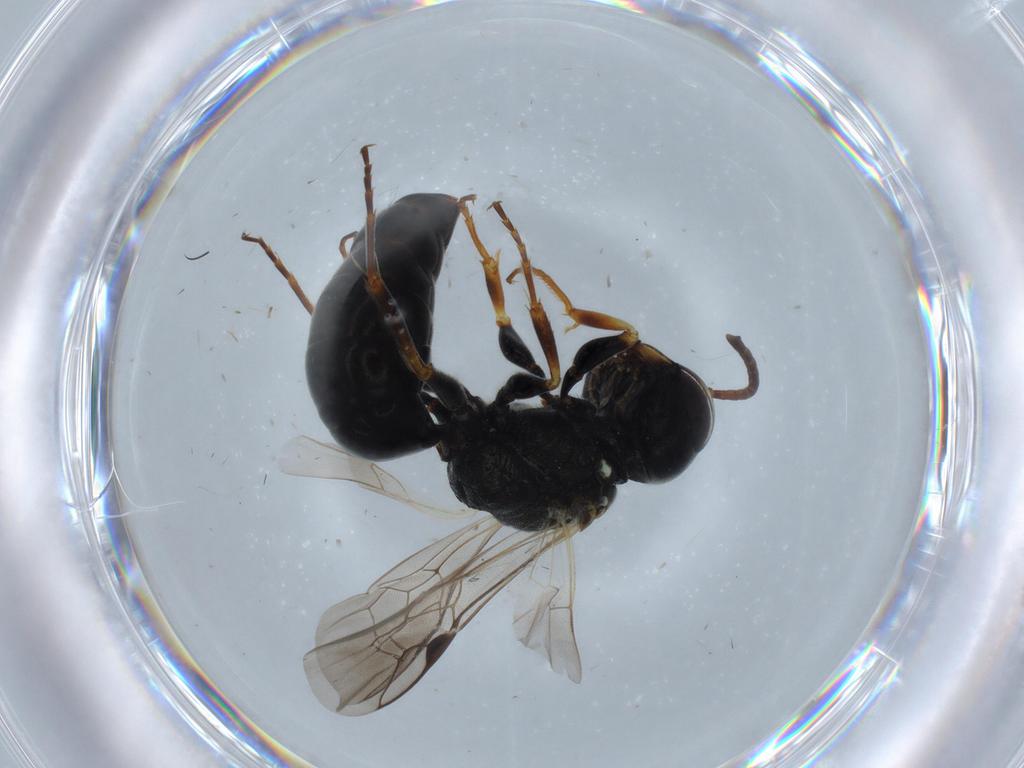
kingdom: Animalia
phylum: Arthropoda
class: Insecta
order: Hymenoptera
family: Crabronidae
